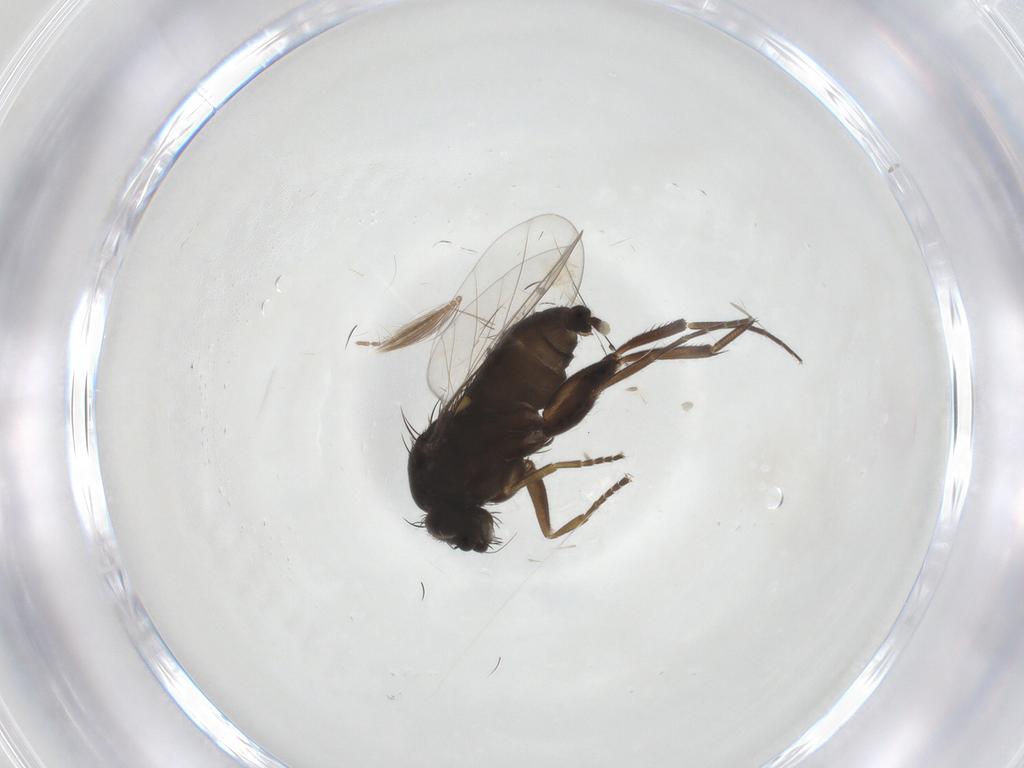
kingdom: Animalia
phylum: Arthropoda
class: Insecta
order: Diptera
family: Phoridae
